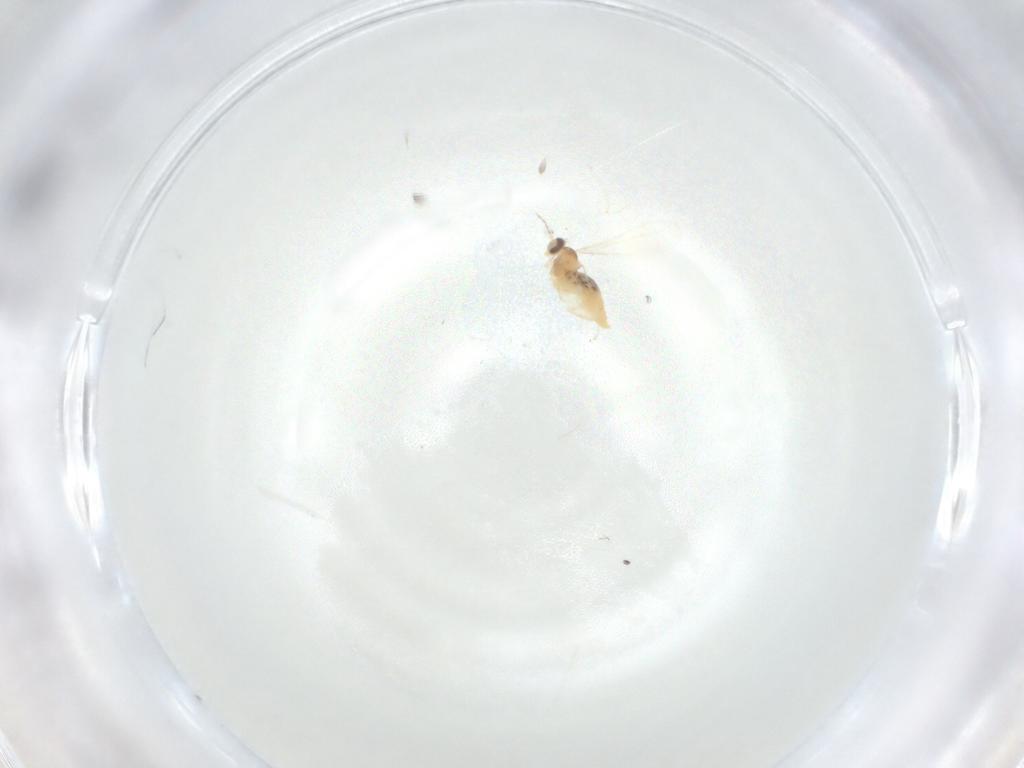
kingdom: Animalia
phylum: Arthropoda
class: Insecta
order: Diptera
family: Cecidomyiidae
